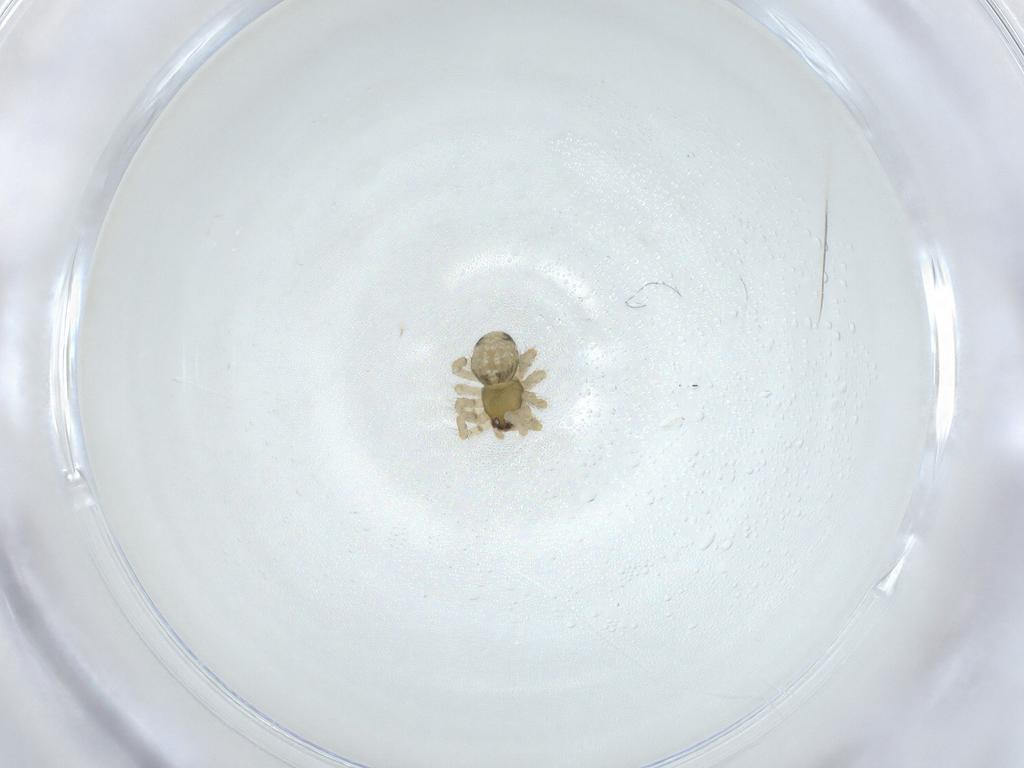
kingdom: Animalia
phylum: Arthropoda
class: Arachnida
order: Araneae
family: Theridiidae
